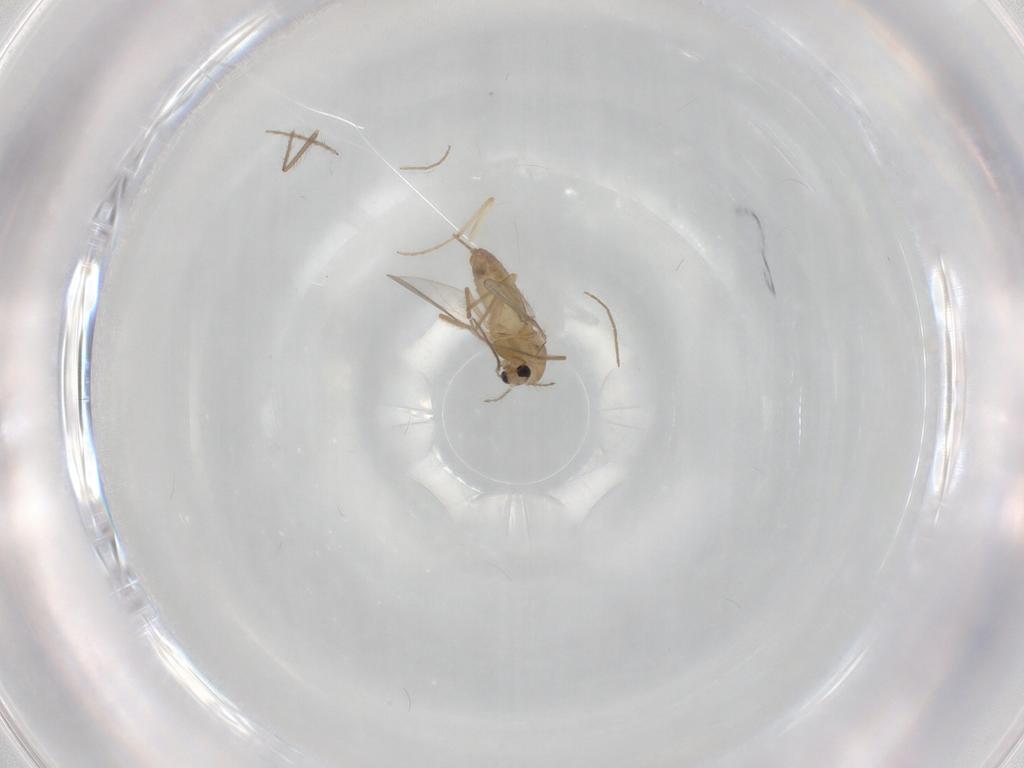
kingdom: Animalia
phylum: Arthropoda
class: Insecta
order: Diptera
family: Chironomidae
